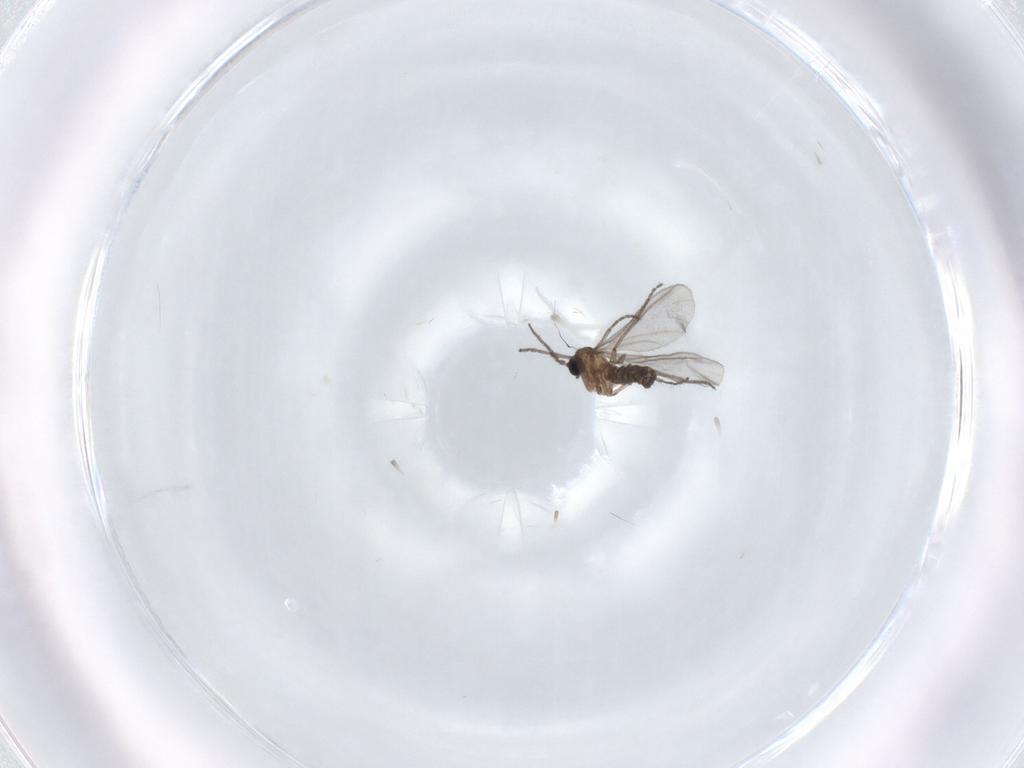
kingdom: Animalia
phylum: Arthropoda
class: Insecta
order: Diptera
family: Sciaridae
